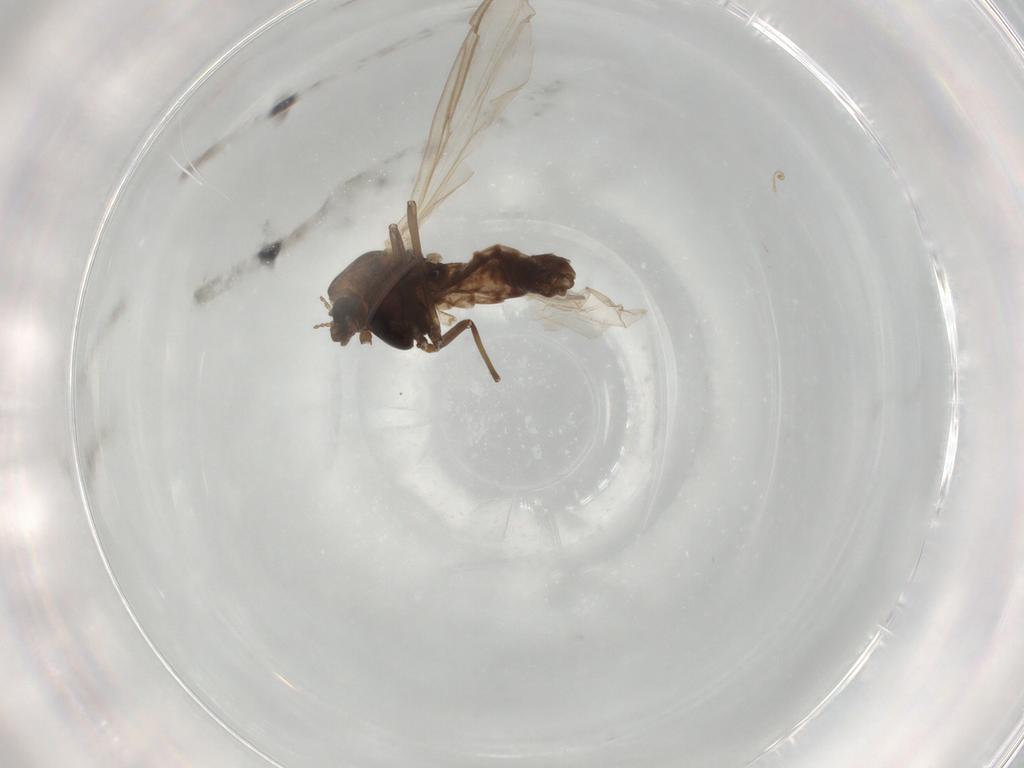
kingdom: Animalia
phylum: Arthropoda
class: Insecta
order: Diptera
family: Chironomidae
